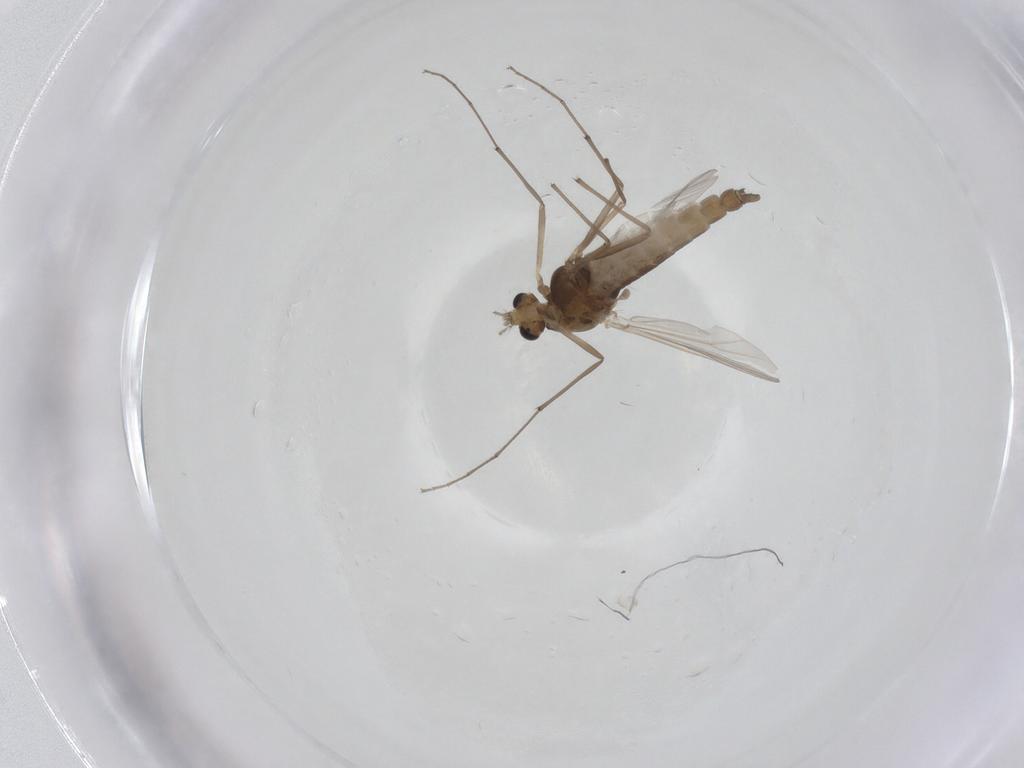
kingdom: Animalia
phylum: Arthropoda
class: Insecta
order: Diptera
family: Chironomidae
